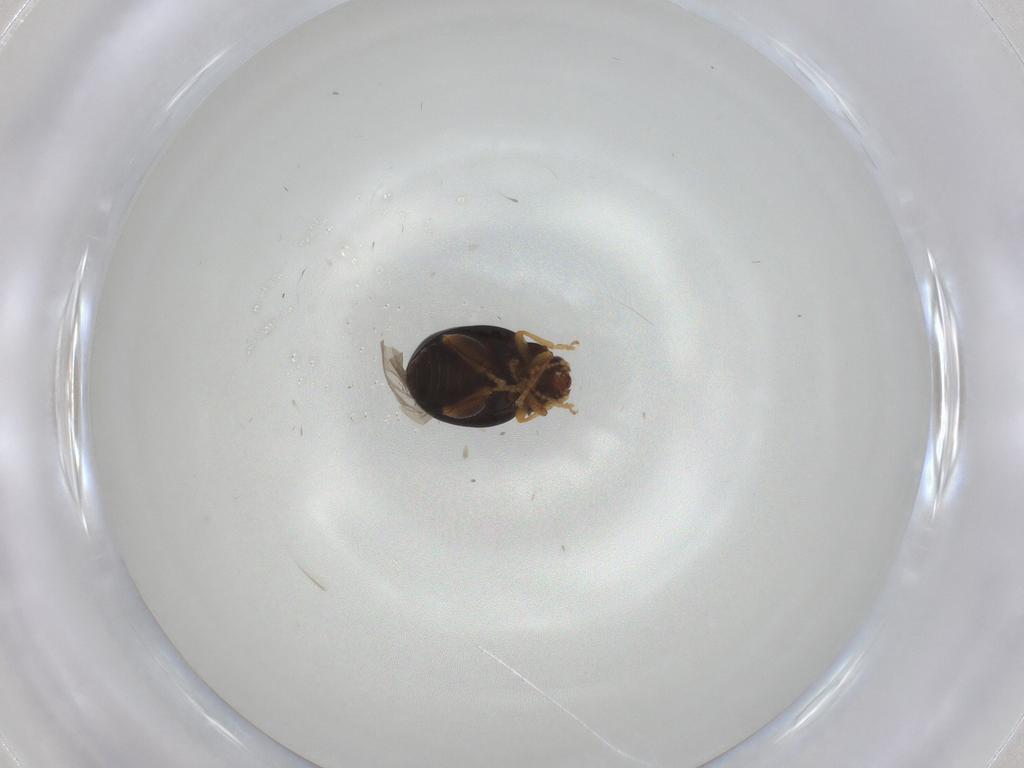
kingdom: Animalia
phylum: Arthropoda
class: Insecta
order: Coleoptera
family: Chrysomelidae
